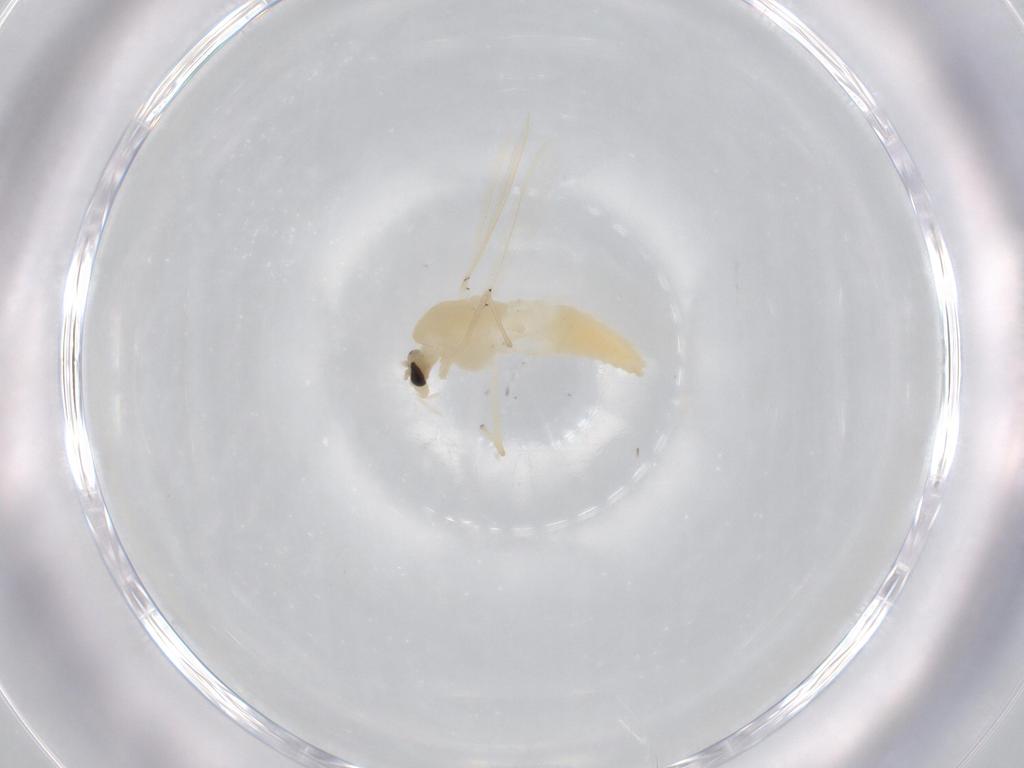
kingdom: Animalia
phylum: Arthropoda
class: Insecta
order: Diptera
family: Chironomidae
